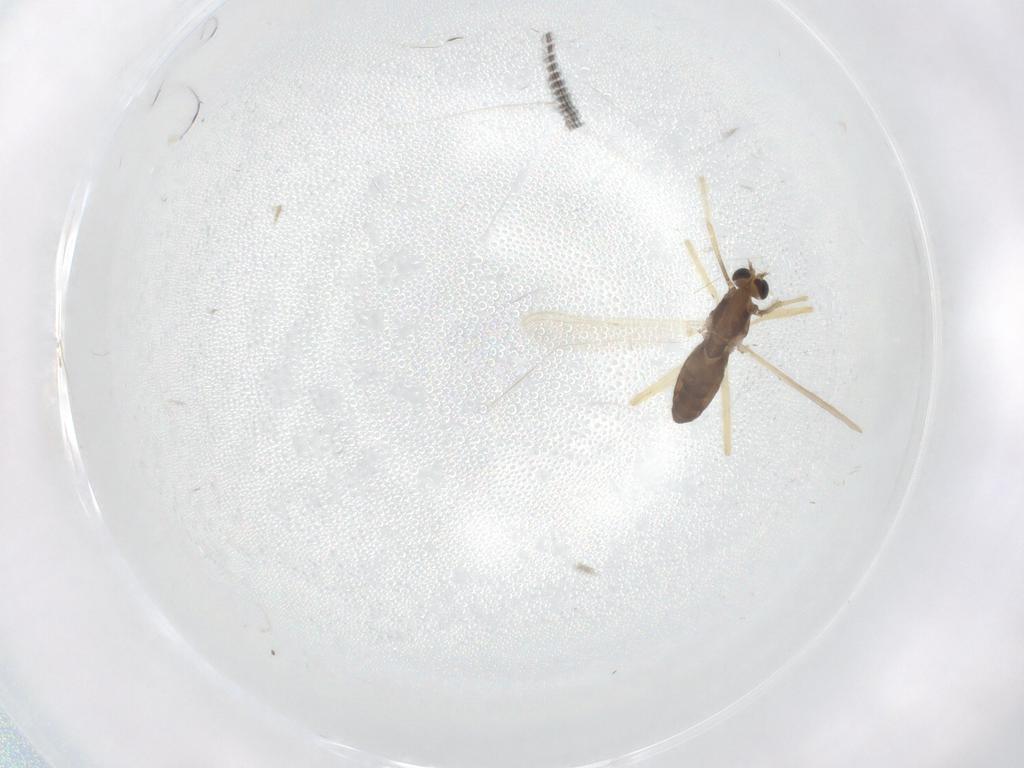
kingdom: Animalia
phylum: Arthropoda
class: Insecta
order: Diptera
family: Chironomidae
